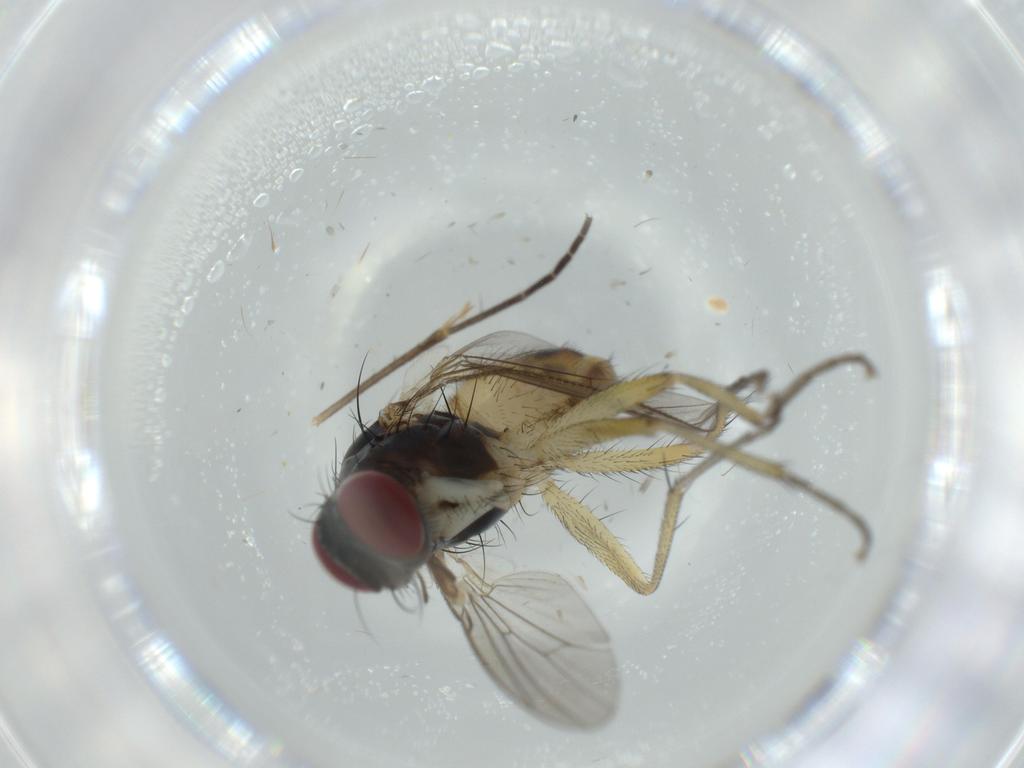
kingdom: Animalia
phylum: Arthropoda
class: Insecta
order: Diptera
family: Muscidae
